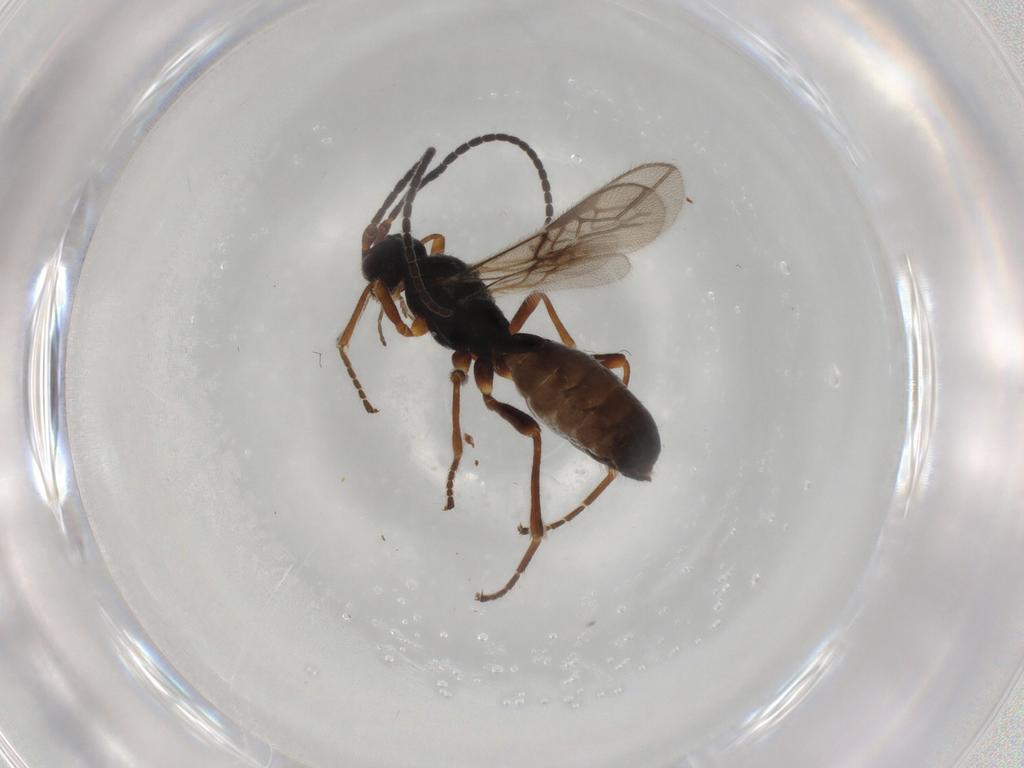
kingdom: Animalia
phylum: Arthropoda
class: Insecta
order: Hymenoptera
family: Braconidae
